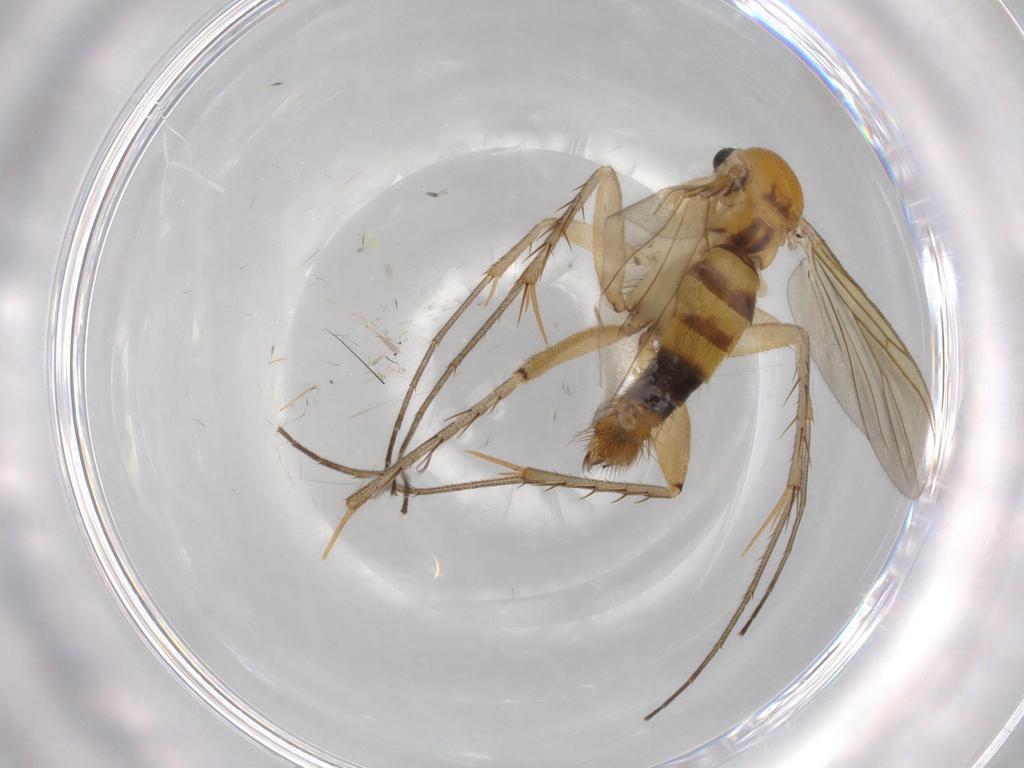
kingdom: Animalia
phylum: Arthropoda
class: Insecta
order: Diptera
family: Mycetophilidae
